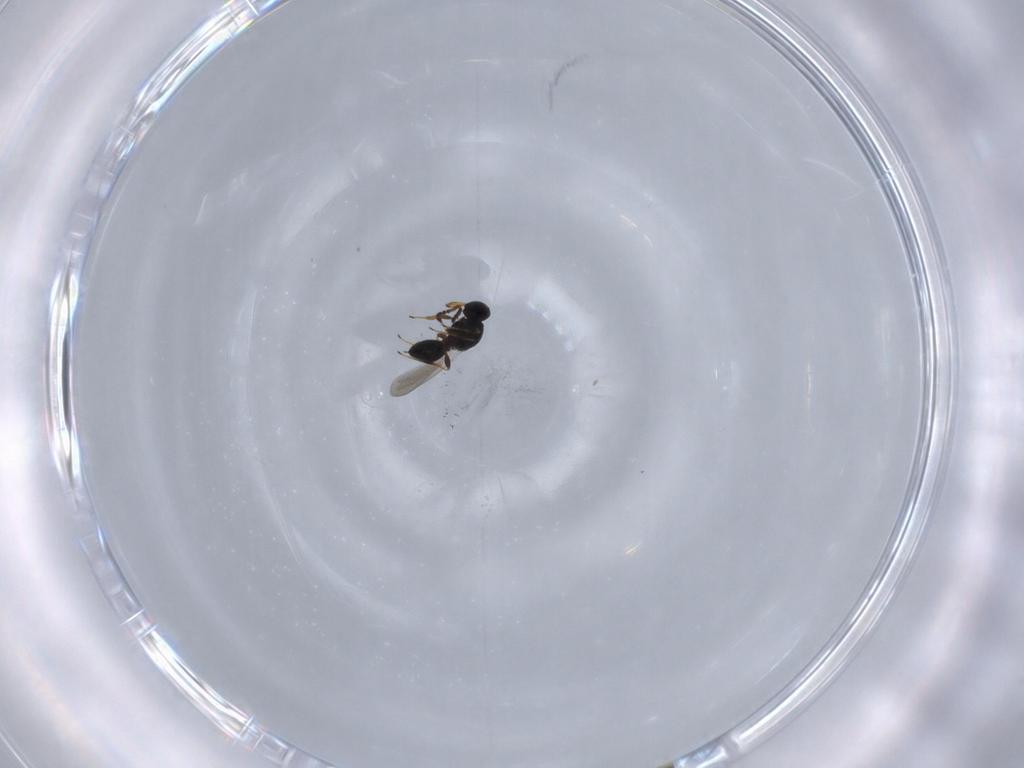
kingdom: Animalia
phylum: Arthropoda
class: Insecta
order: Hymenoptera
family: Platygastridae
